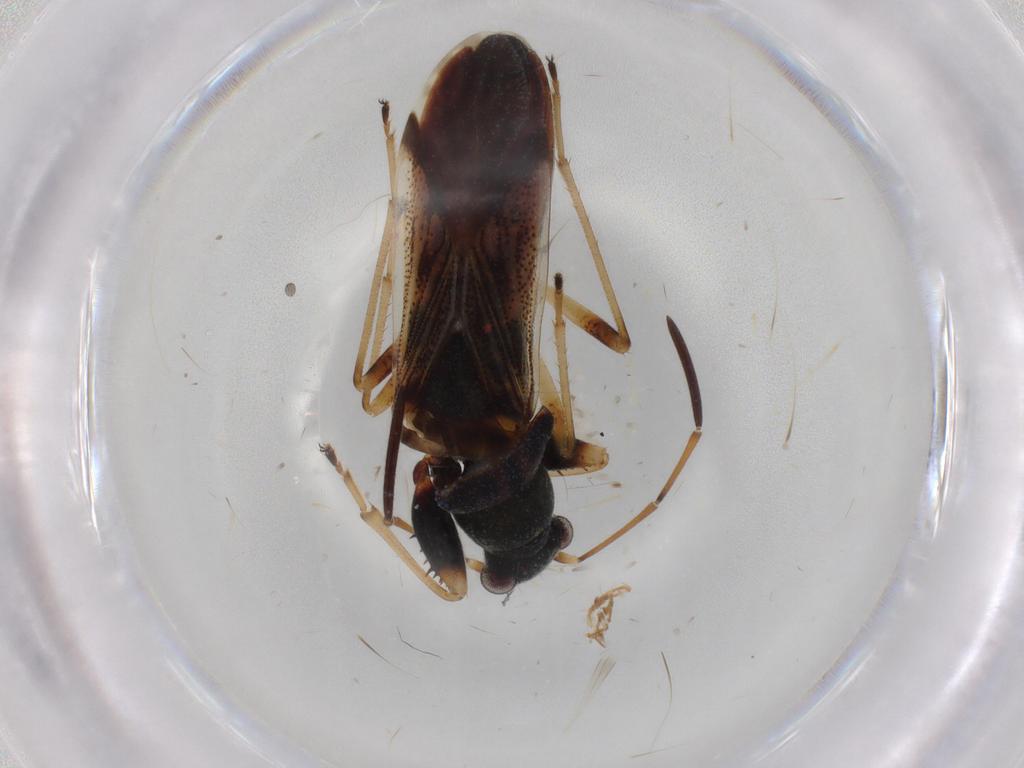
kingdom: Animalia
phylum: Arthropoda
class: Insecta
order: Hemiptera
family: Rhyparochromidae
